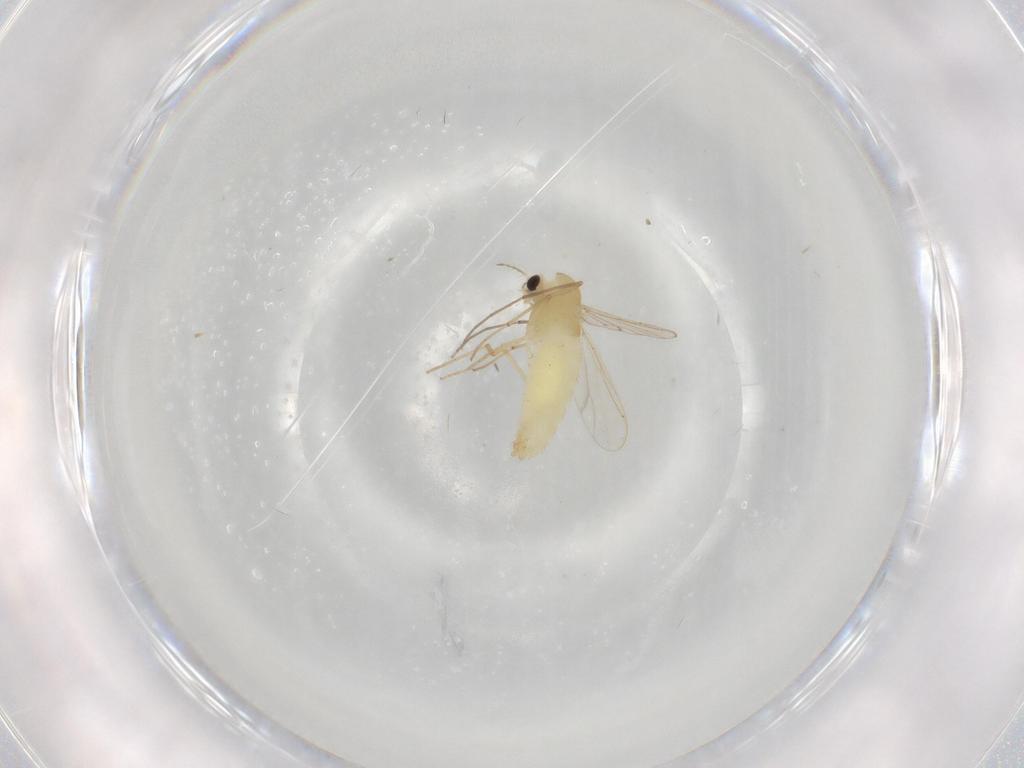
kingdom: Animalia
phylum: Arthropoda
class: Insecta
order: Diptera
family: Chironomidae
